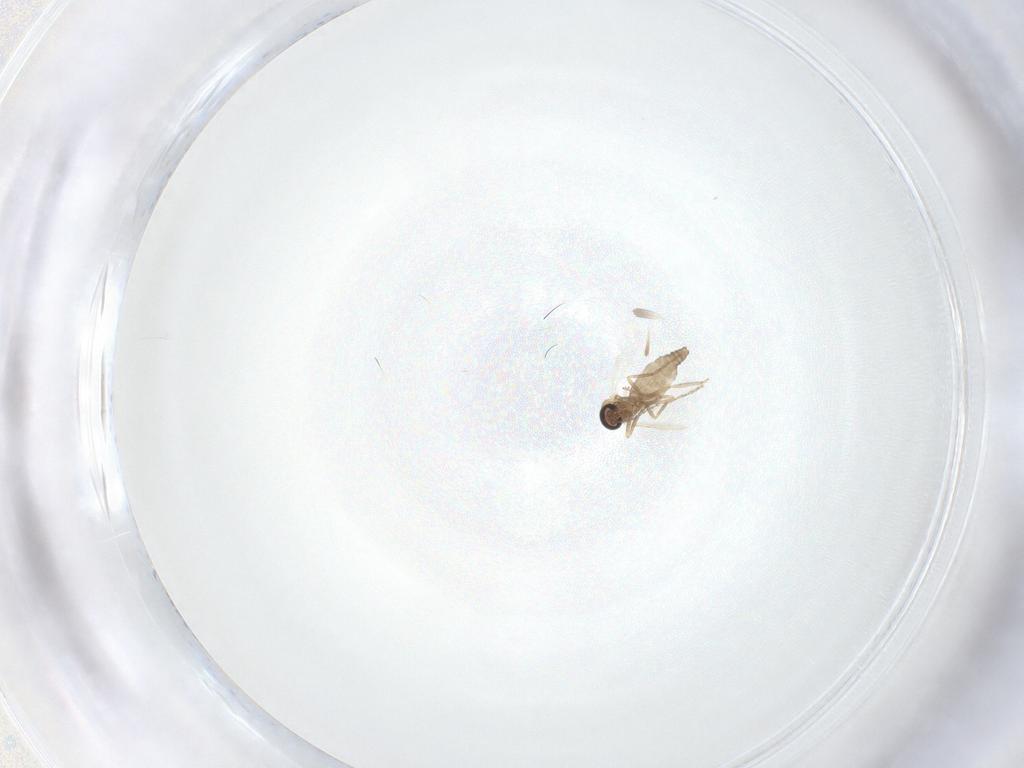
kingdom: Animalia
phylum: Arthropoda
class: Insecta
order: Diptera
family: Ceratopogonidae
